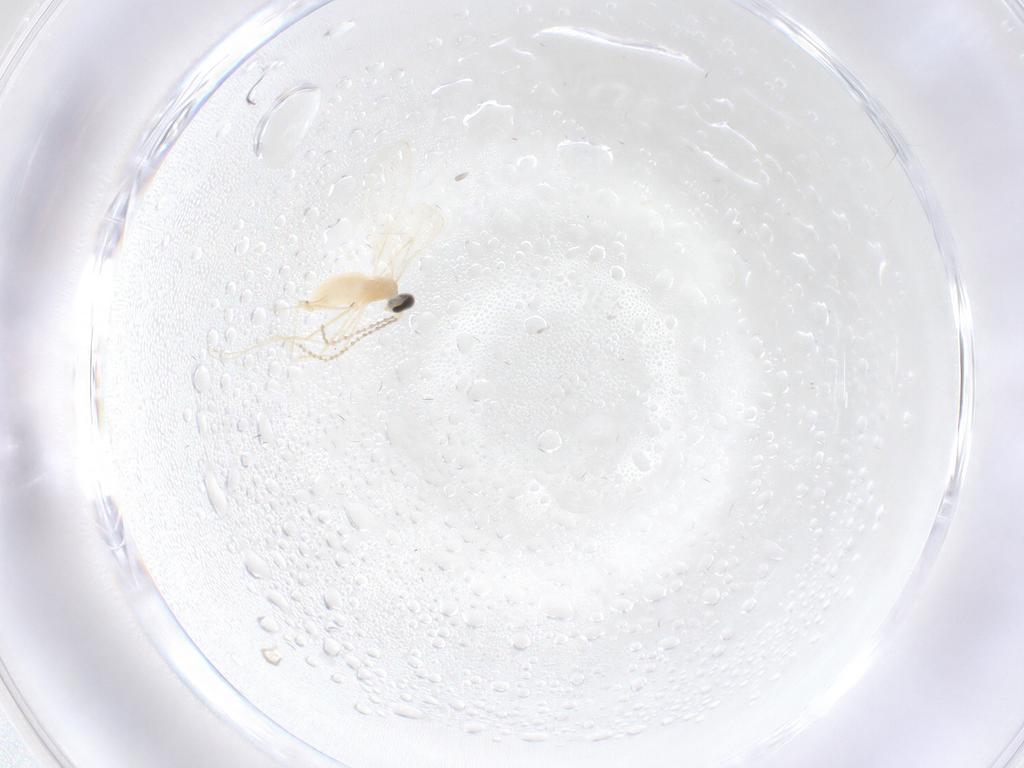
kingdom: Animalia
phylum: Arthropoda
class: Insecta
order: Diptera
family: Cecidomyiidae
